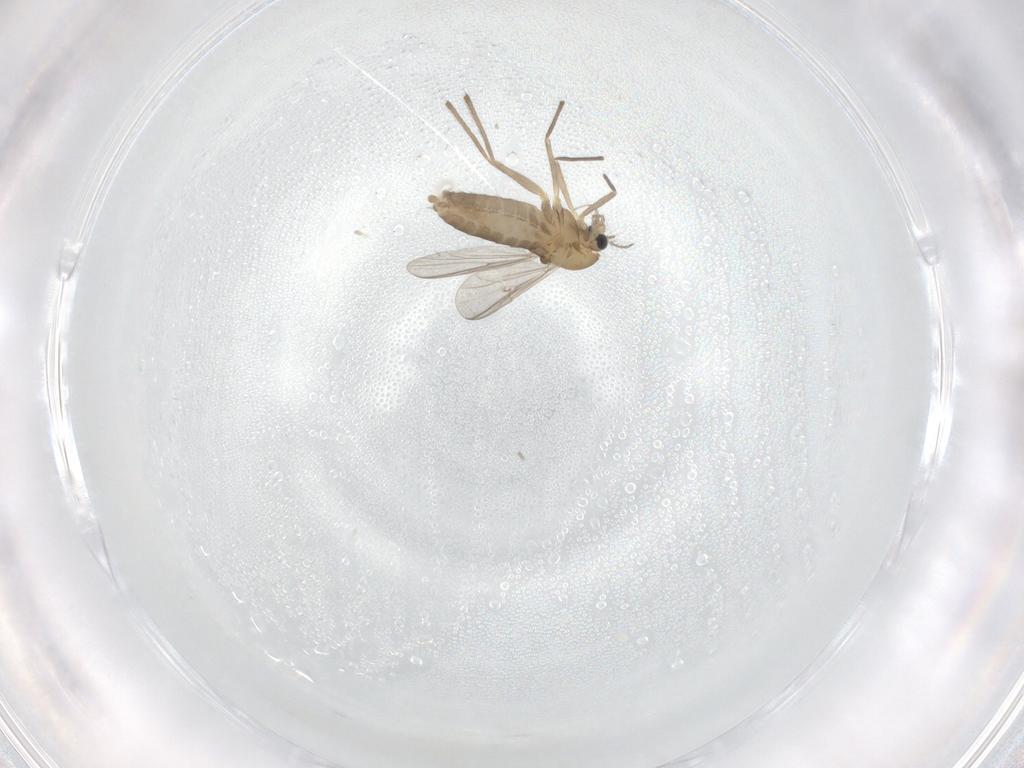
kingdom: Animalia
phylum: Arthropoda
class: Insecta
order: Diptera
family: Chironomidae
